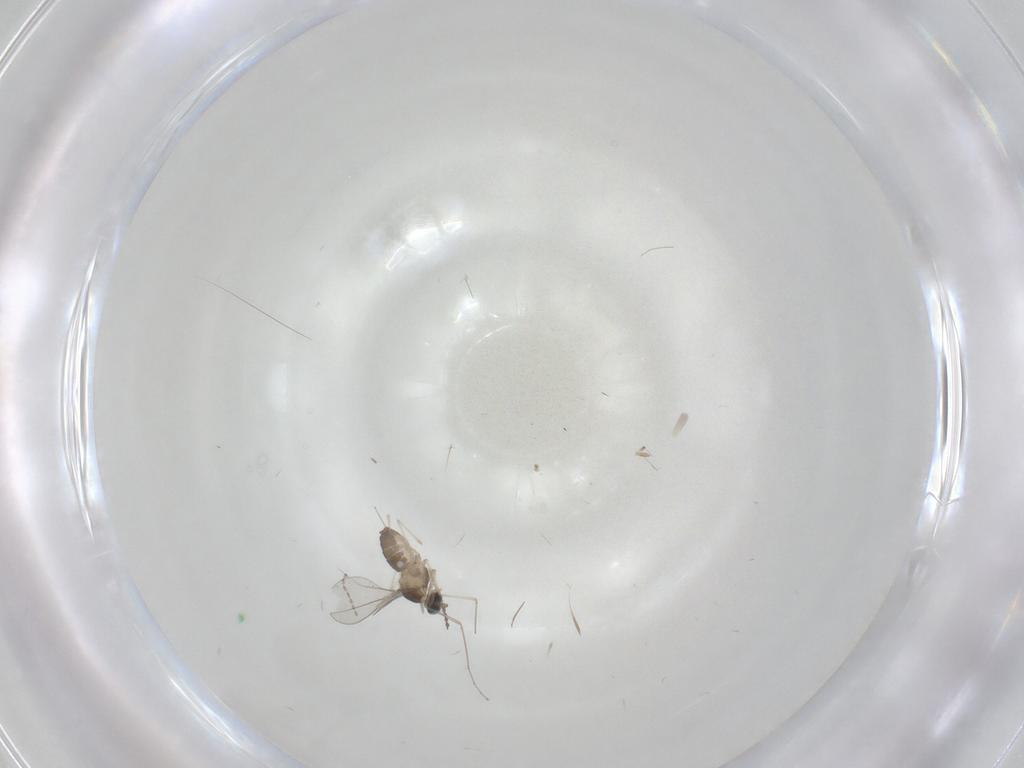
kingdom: Animalia
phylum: Arthropoda
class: Insecta
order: Diptera
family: Chironomidae
